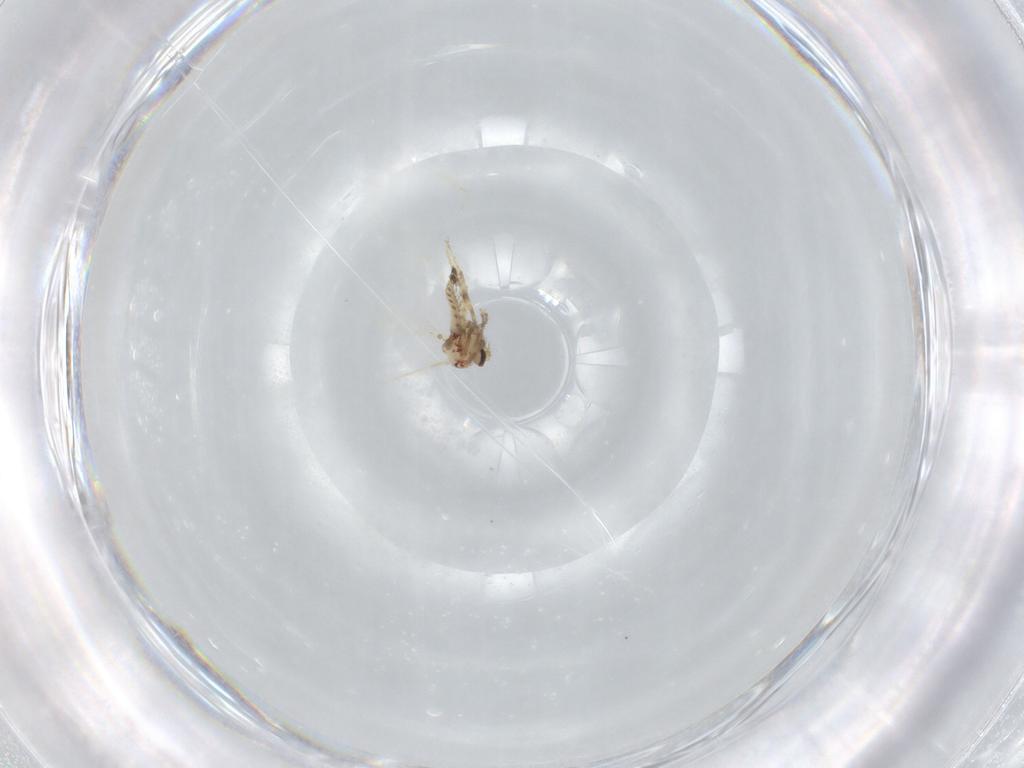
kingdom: Animalia
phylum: Arthropoda
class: Insecta
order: Diptera
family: Ceratopogonidae
